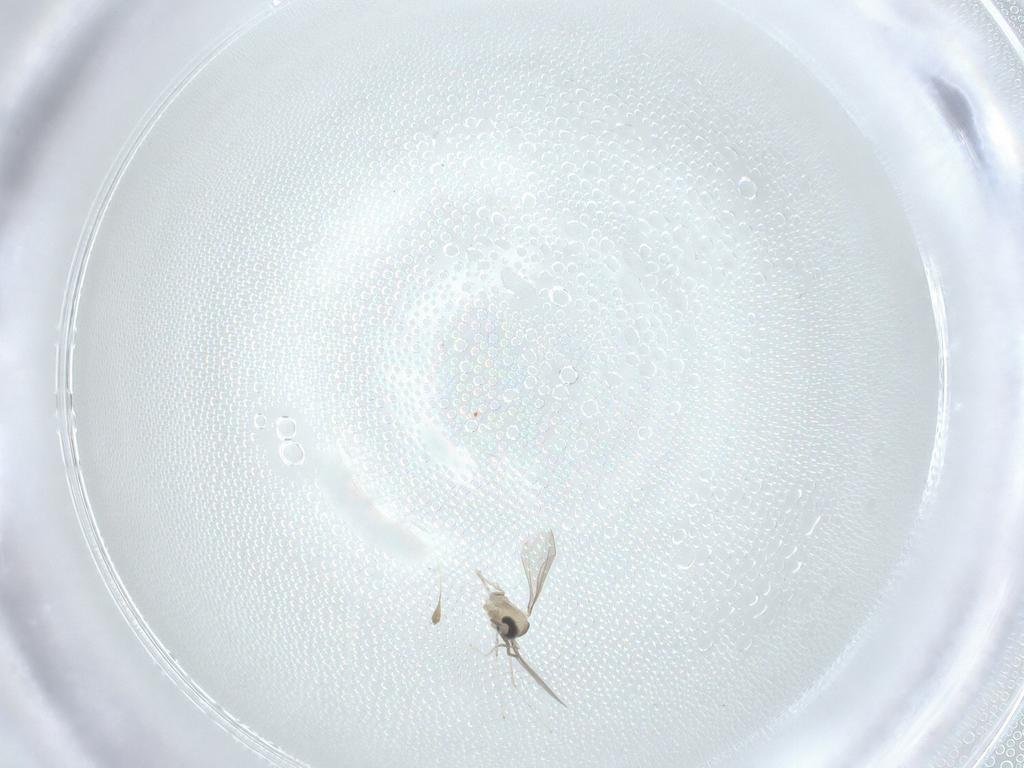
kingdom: Animalia
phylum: Arthropoda
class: Insecta
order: Diptera
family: Cecidomyiidae
